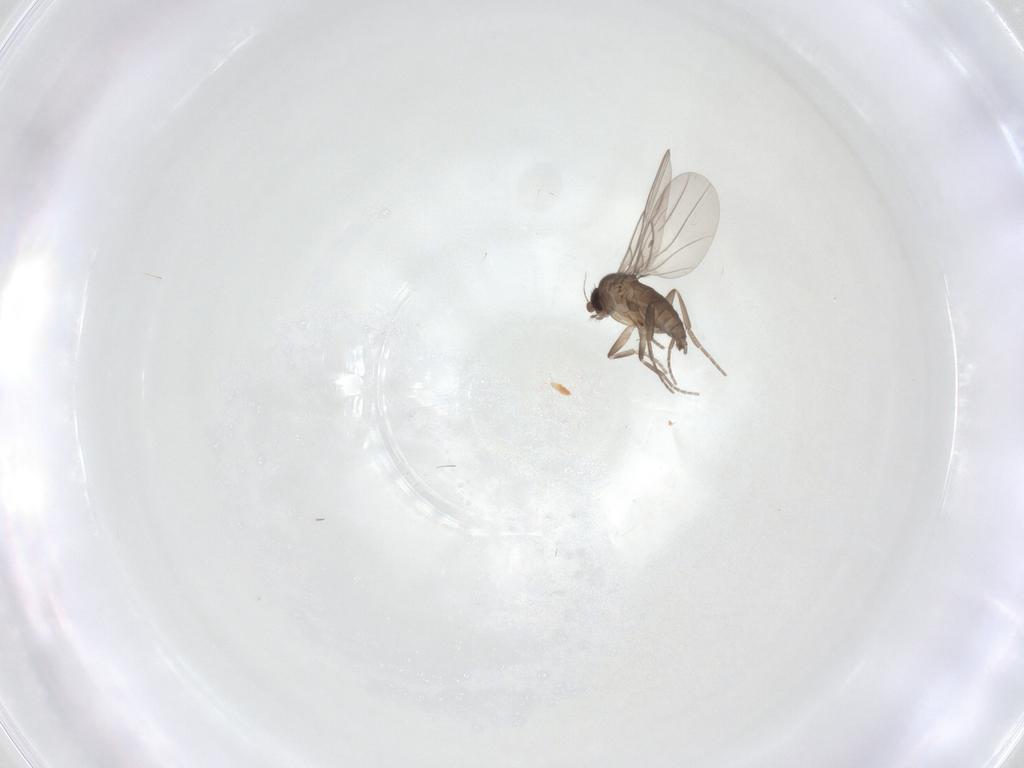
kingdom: Animalia
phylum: Arthropoda
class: Insecta
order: Diptera
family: Phoridae
